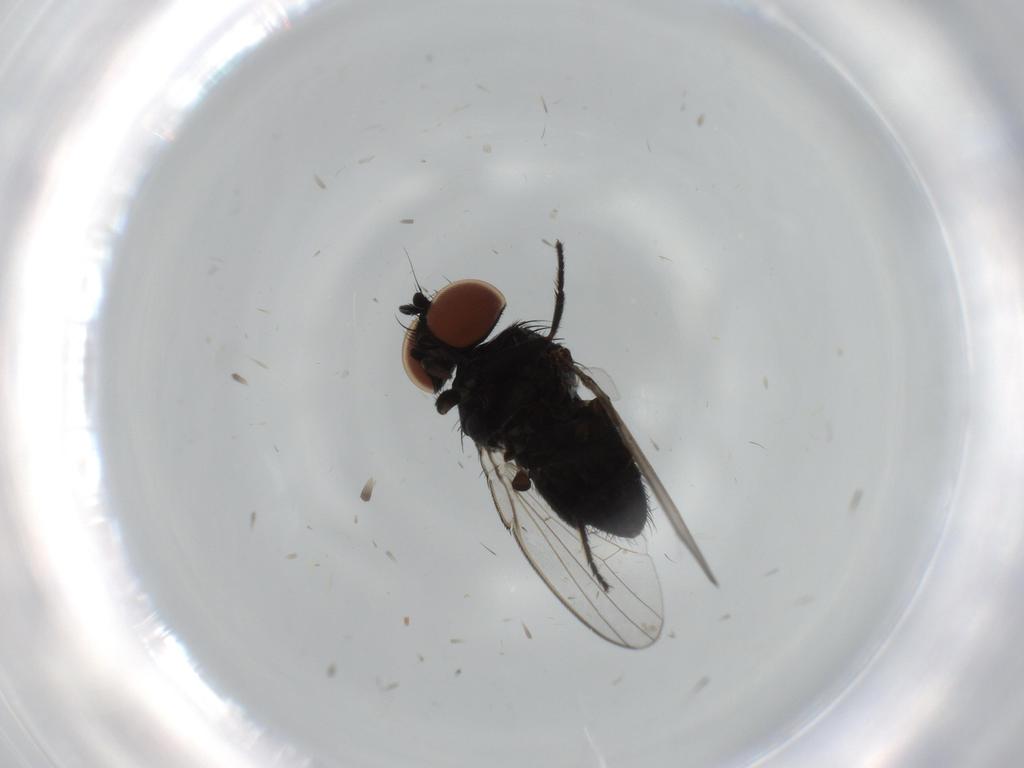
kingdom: Animalia
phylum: Arthropoda
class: Insecta
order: Diptera
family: Milichiidae
